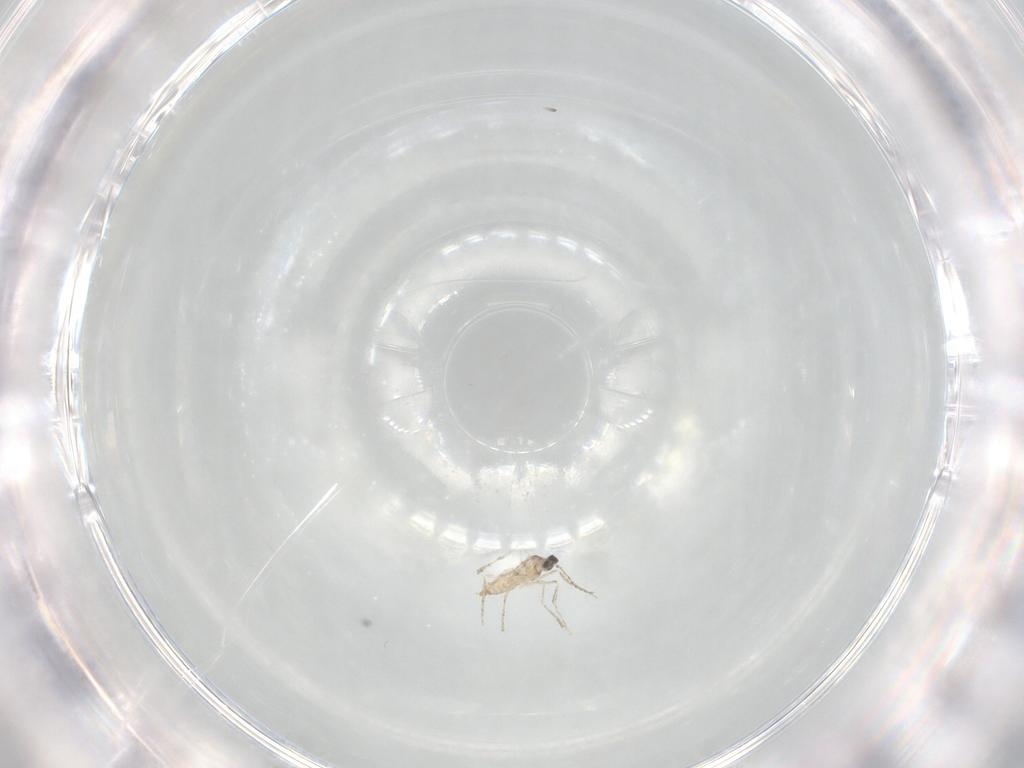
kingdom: Animalia
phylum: Arthropoda
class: Insecta
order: Diptera
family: Cecidomyiidae
